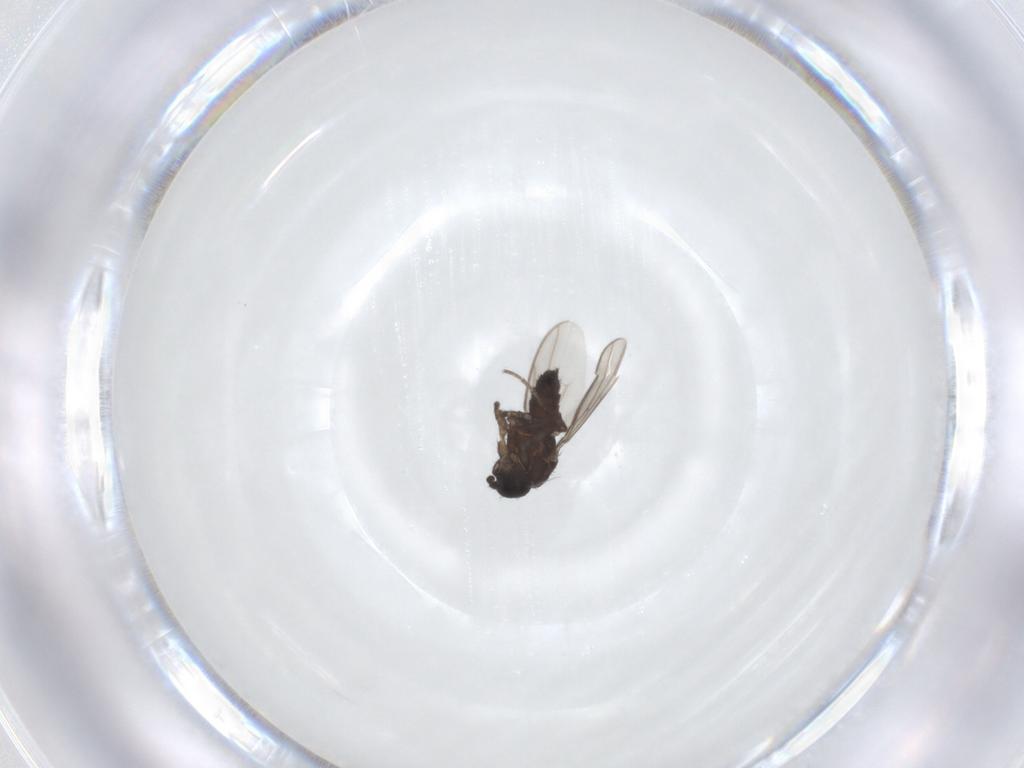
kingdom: Animalia
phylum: Arthropoda
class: Insecta
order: Diptera
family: Sphaeroceridae
